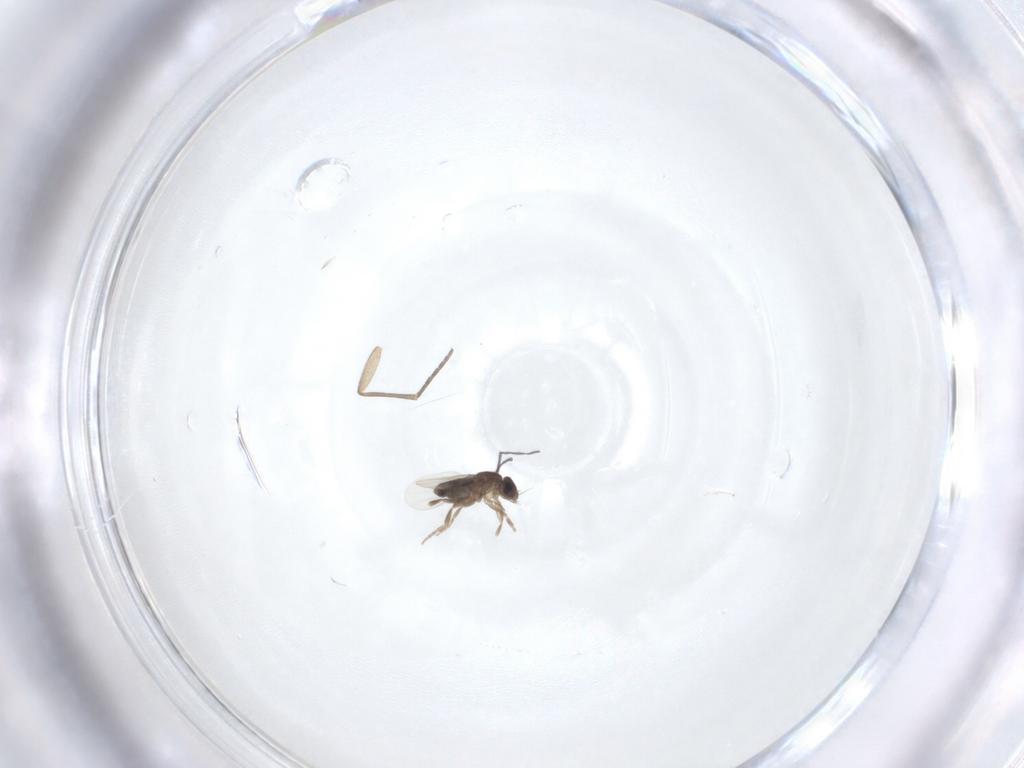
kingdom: Animalia
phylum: Arthropoda
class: Insecta
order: Diptera
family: Phoridae
